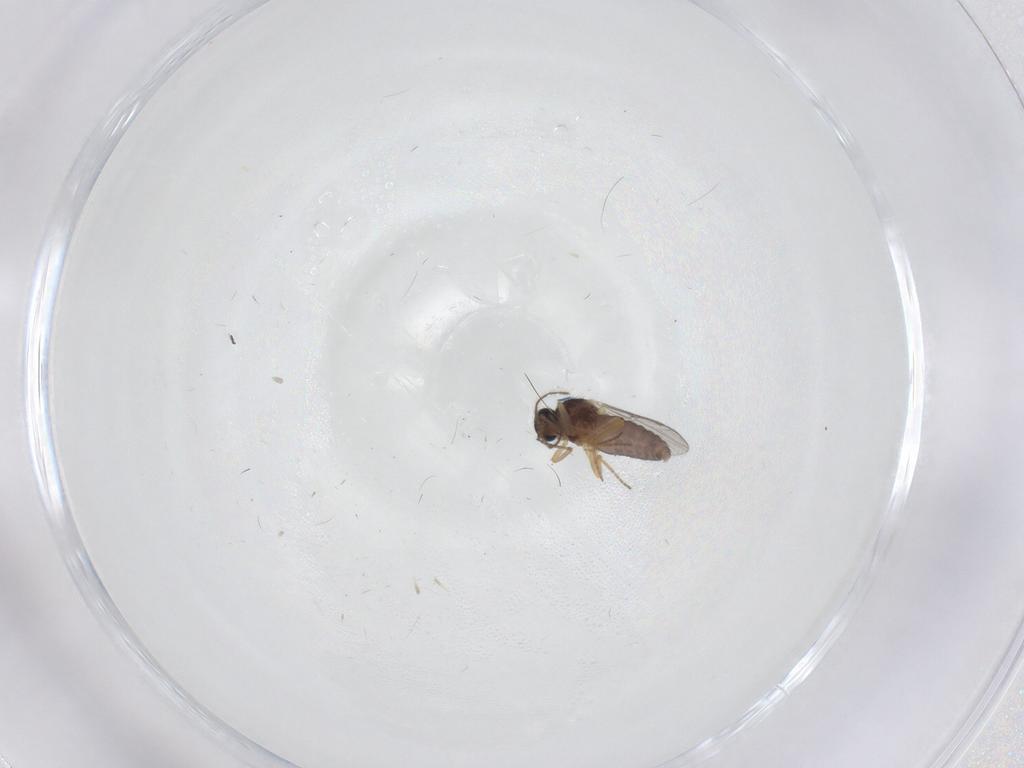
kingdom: Animalia
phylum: Arthropoda
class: Insecta
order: Diptera
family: Ceratopogonidae
